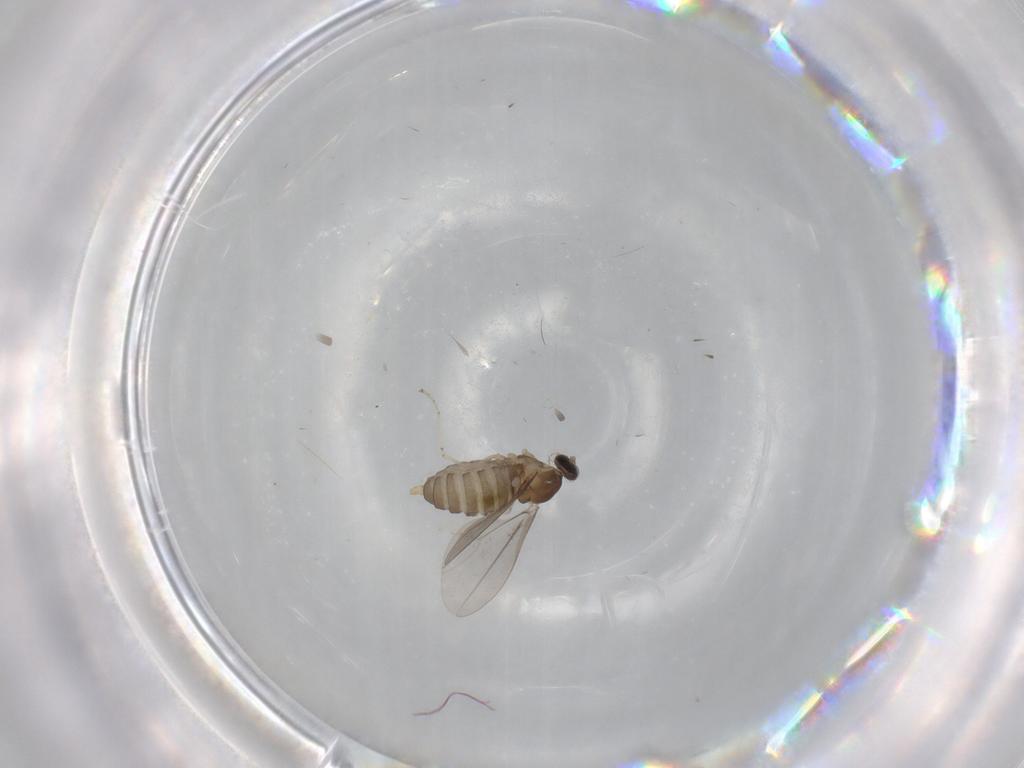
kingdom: Animalia
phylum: Arthropoda
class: Insecta
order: Diptera
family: Cecidomyiidae
